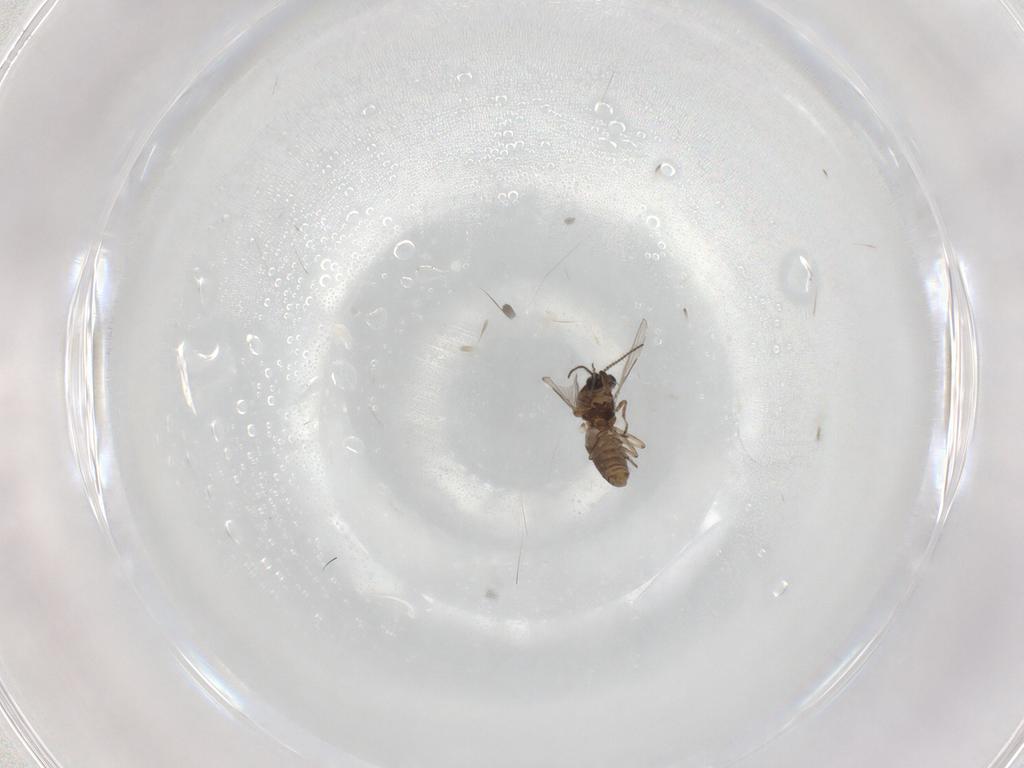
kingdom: Animalia
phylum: Arthropoda
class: Insecta
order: Diptera
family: Ceratopogonidae
